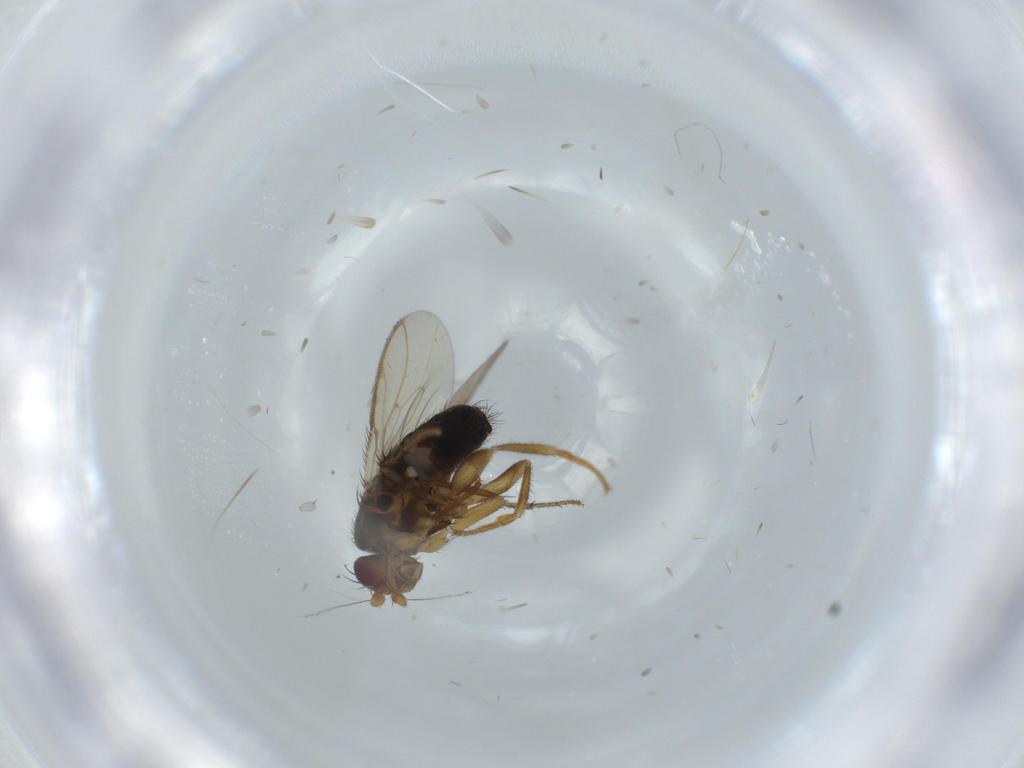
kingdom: Animalia
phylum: Arthropoda
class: Insecta
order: Diptera
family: Sphaeroceridae
